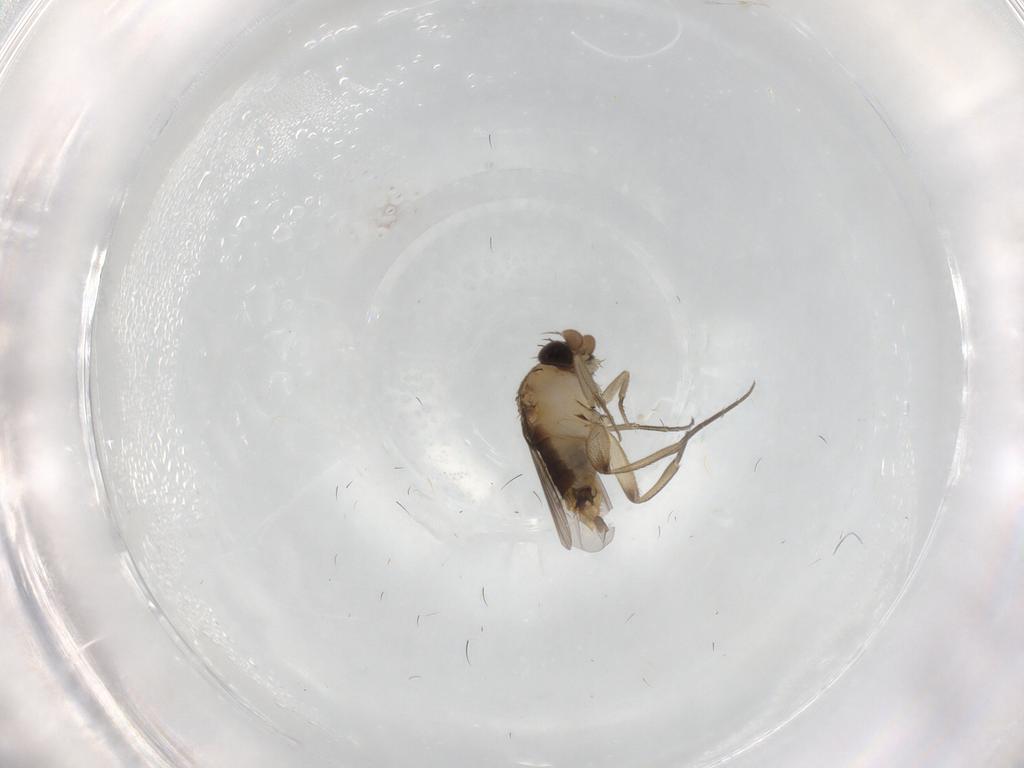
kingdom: Animalia
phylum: Arthropoda
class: Insecta
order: Diptera
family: Phoridae
